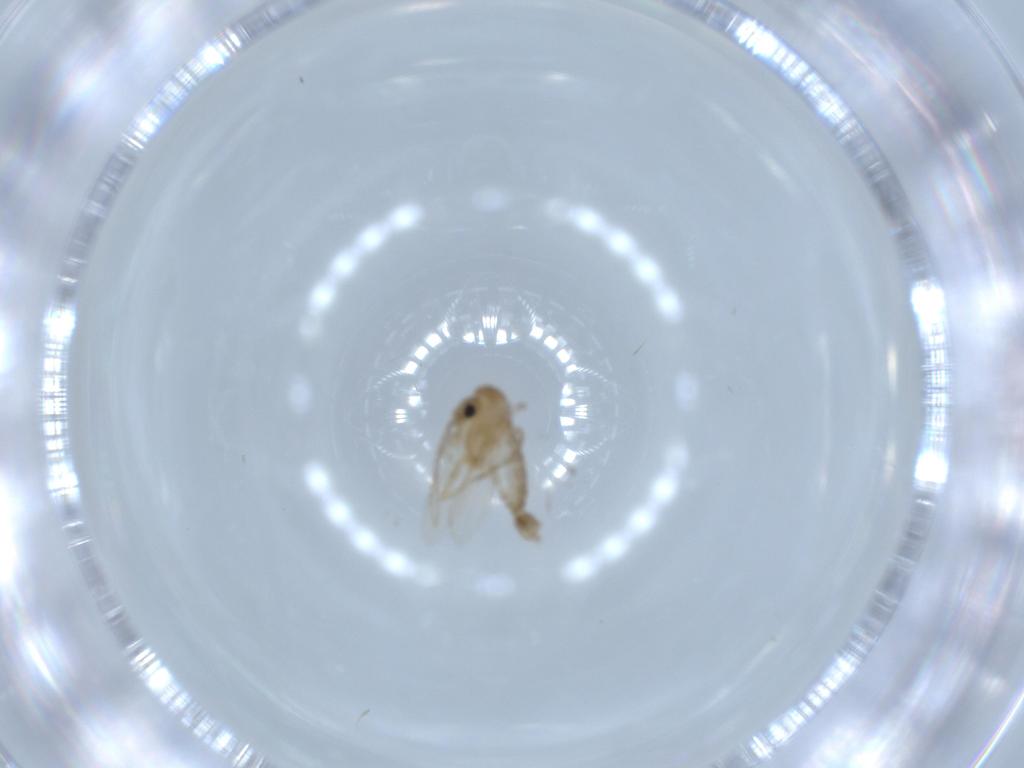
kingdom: Animalia
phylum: Arthropoda
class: Insecta
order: Diptera
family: Psychodidae
